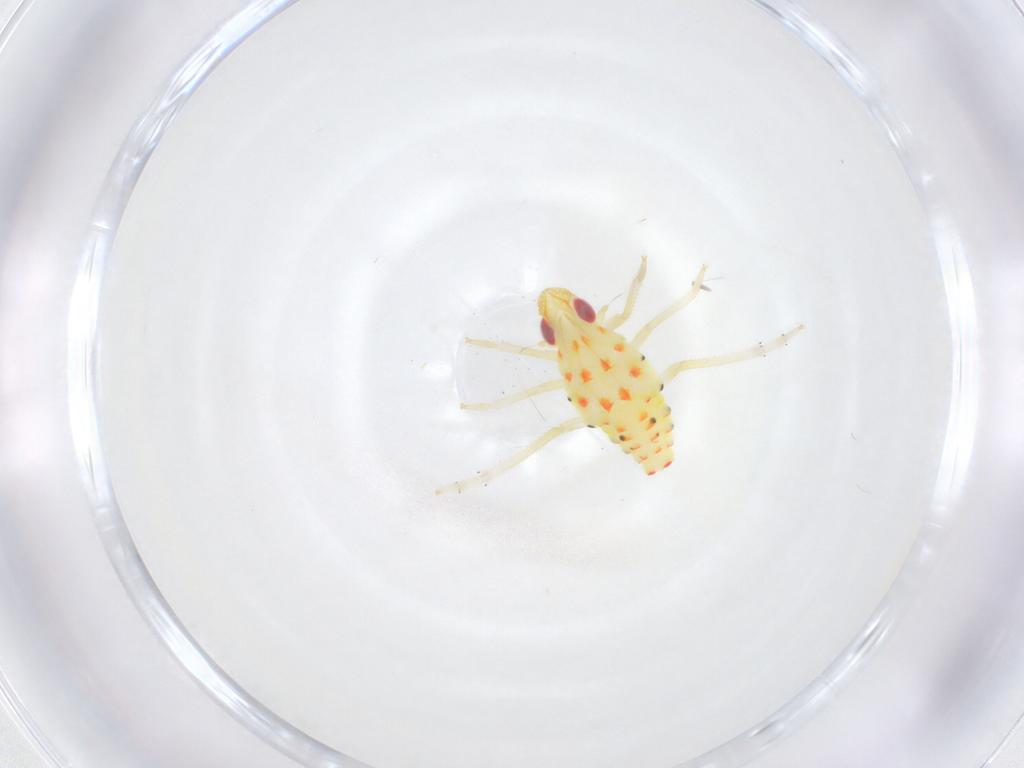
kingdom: Animalia
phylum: Arthropoda
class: Insecta
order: Hemiptera
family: Tropiduchidae
